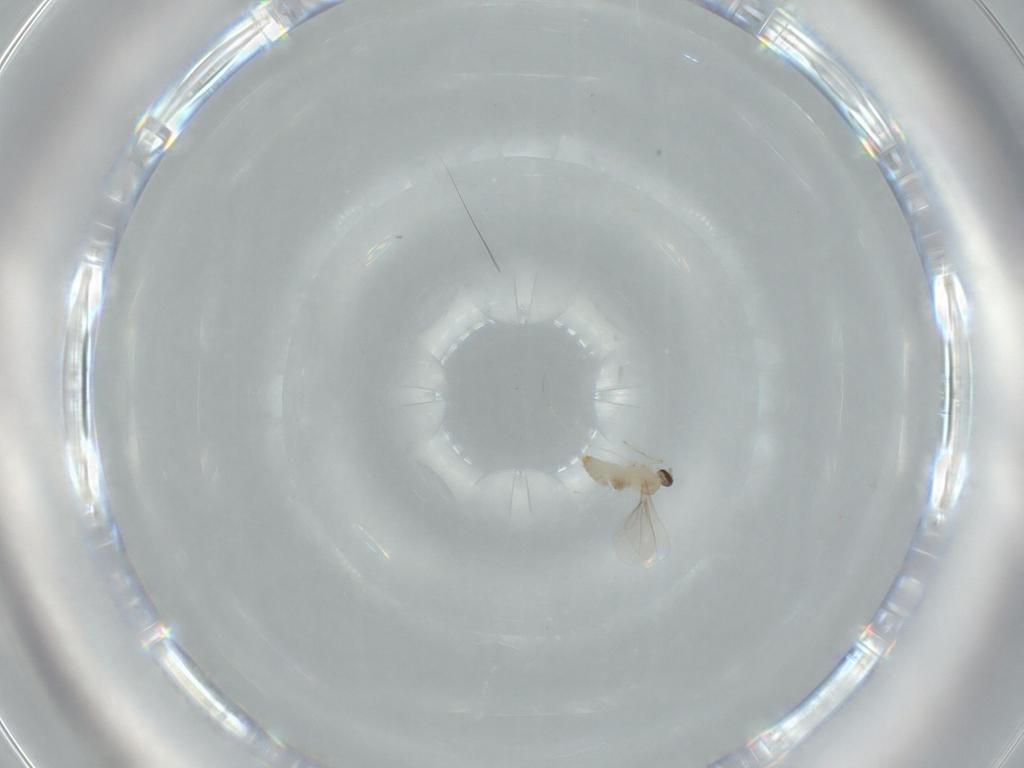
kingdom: Animalia
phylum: Arthropoda
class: Insecta
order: Diptera
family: Cecidomyiidae
